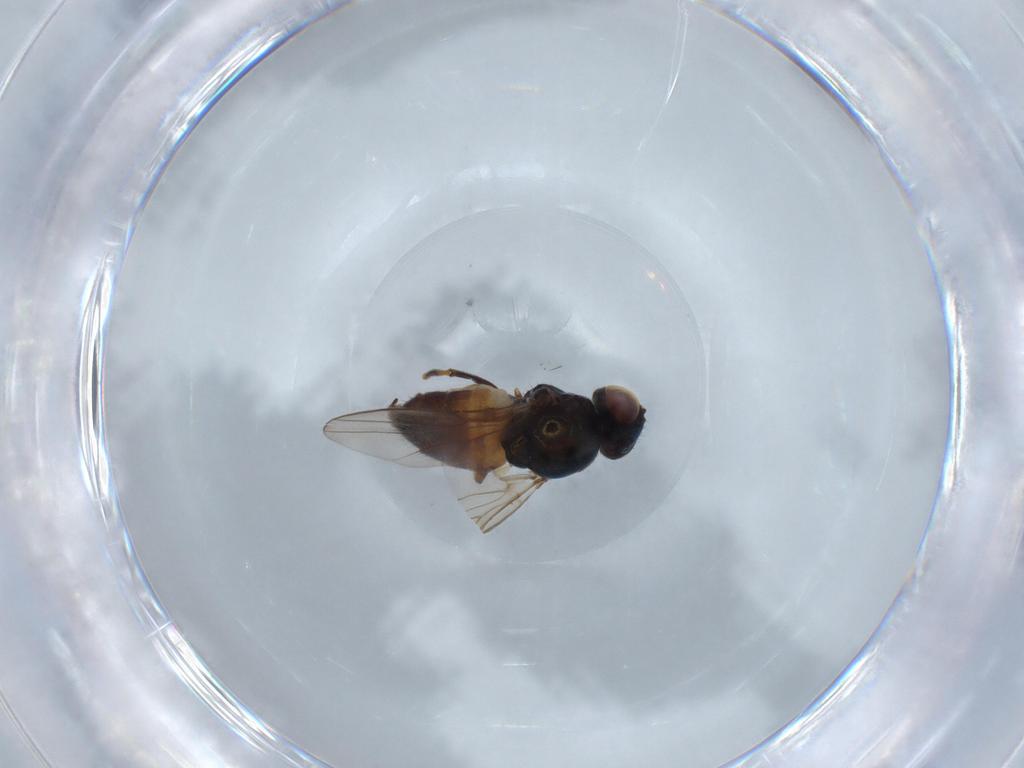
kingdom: Animalia
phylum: Arthropoda
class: Insecta
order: Diptera
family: Chloropidae
